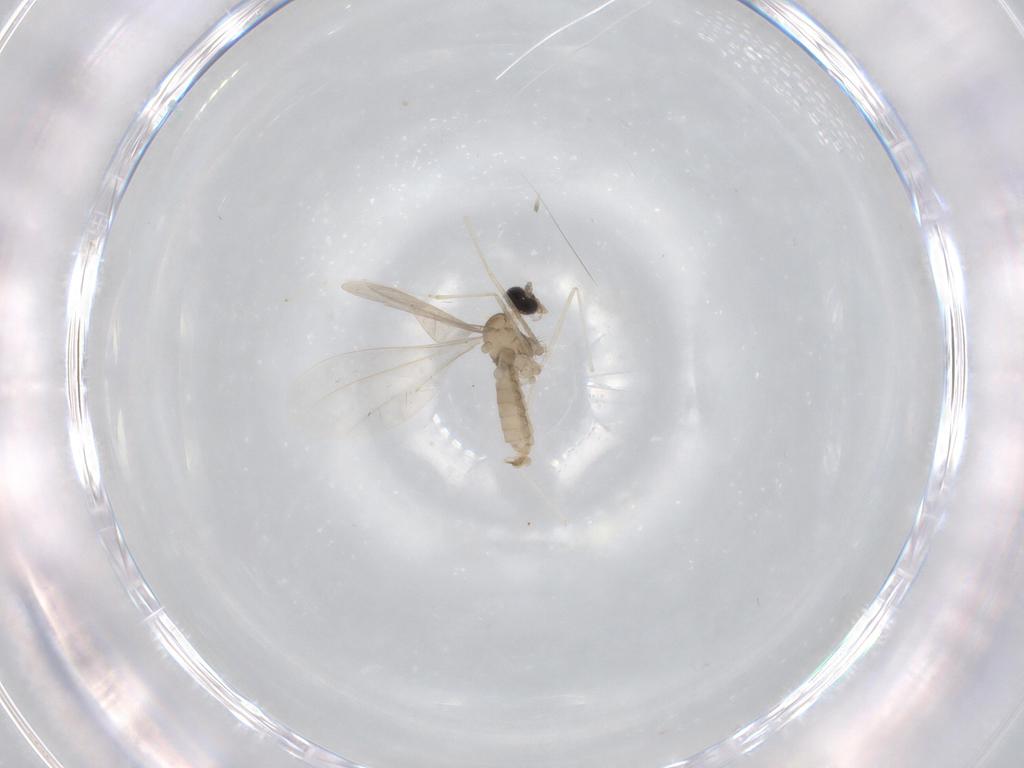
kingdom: Animalia
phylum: Arthropoda
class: Insecta
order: Diptera
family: Cecidomyiidae
